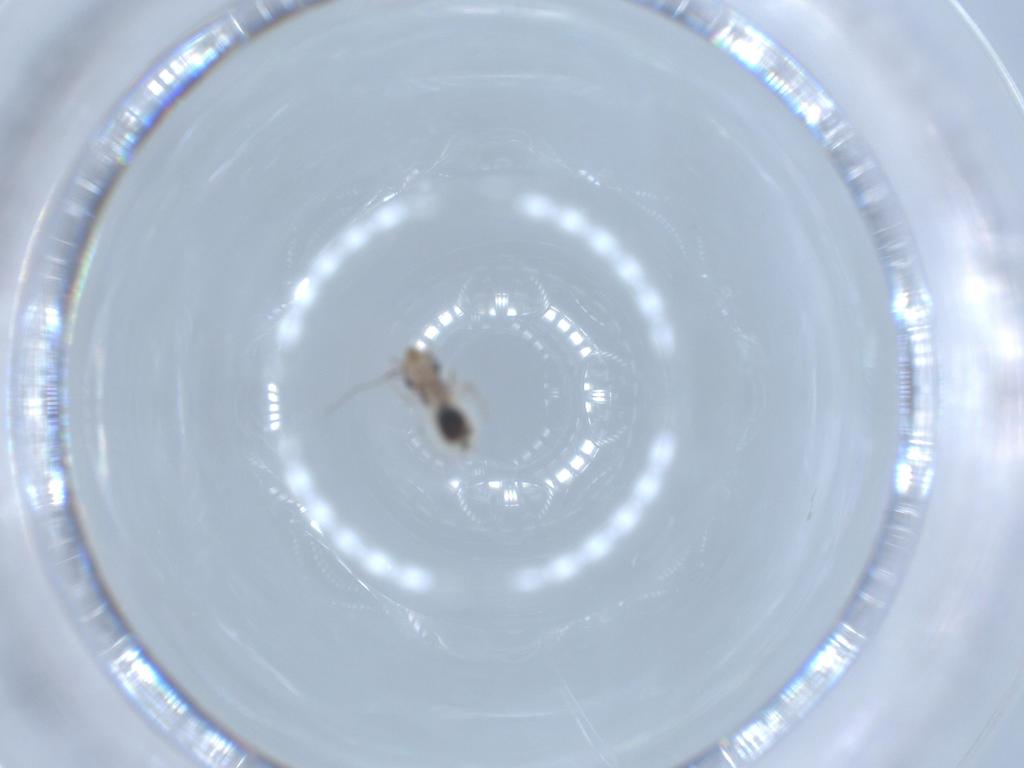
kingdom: Animalia
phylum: Arthropoda
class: Insecta
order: Psocodea
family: Lepidopsocidae
